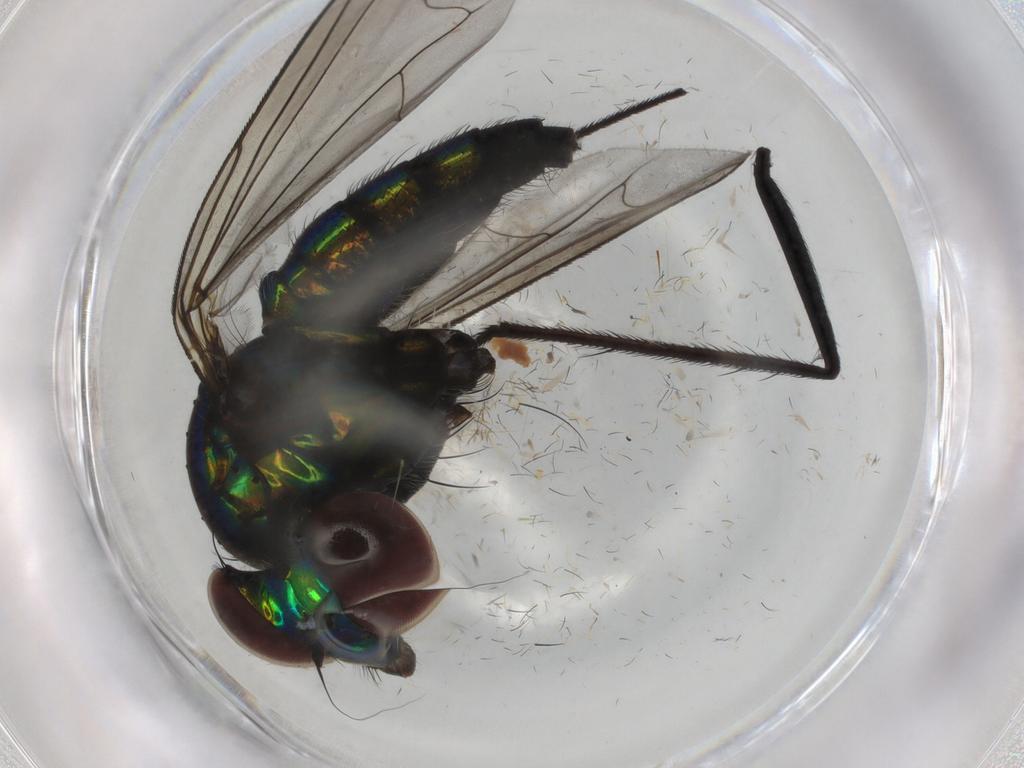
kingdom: Animalia
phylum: Arthropoda
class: Insecta
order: Diptera
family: Dolichopodidae
